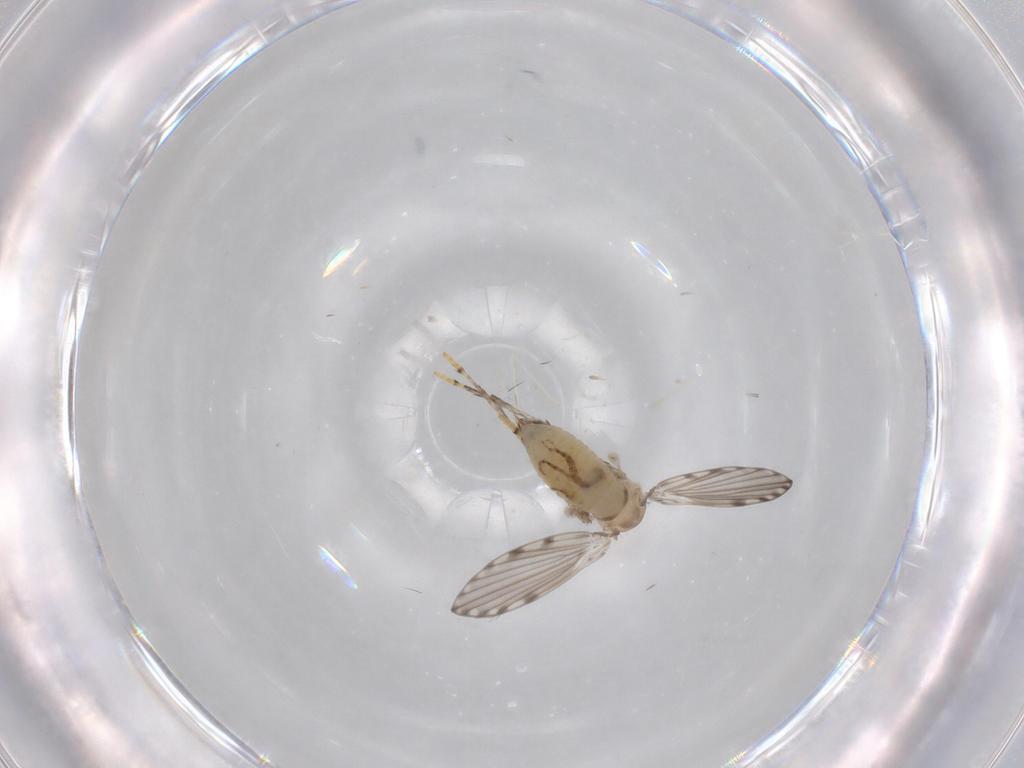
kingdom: Animalia
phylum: Arthropoda
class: Insecta
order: Diptera
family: Psychodidae
